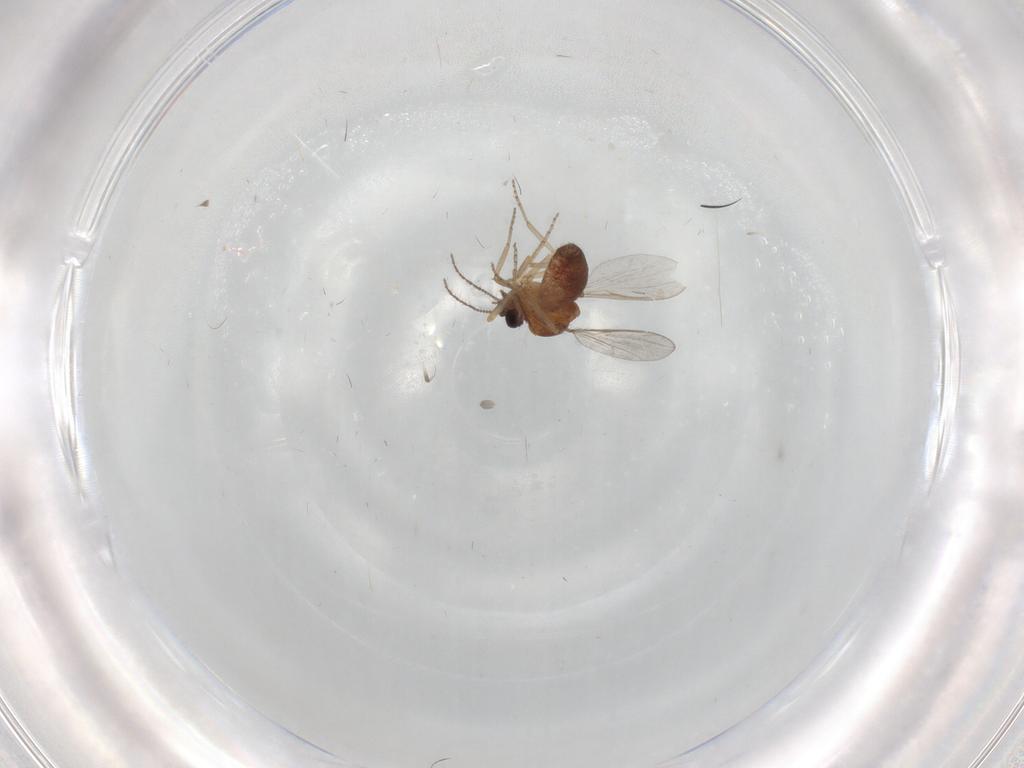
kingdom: Animalia
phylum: Arthropoda
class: Insecta
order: Diptera
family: Ceratopogonidae
